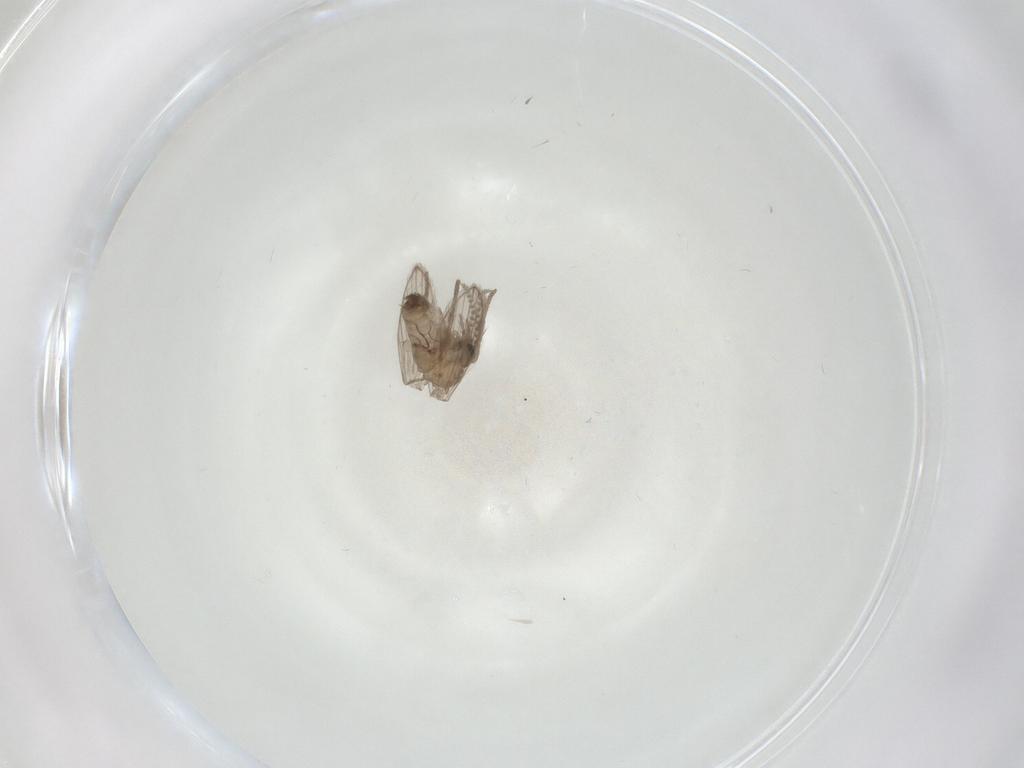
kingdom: Animalia
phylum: Arthropoda
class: Insecta
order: Diptera
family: Psychodidae
